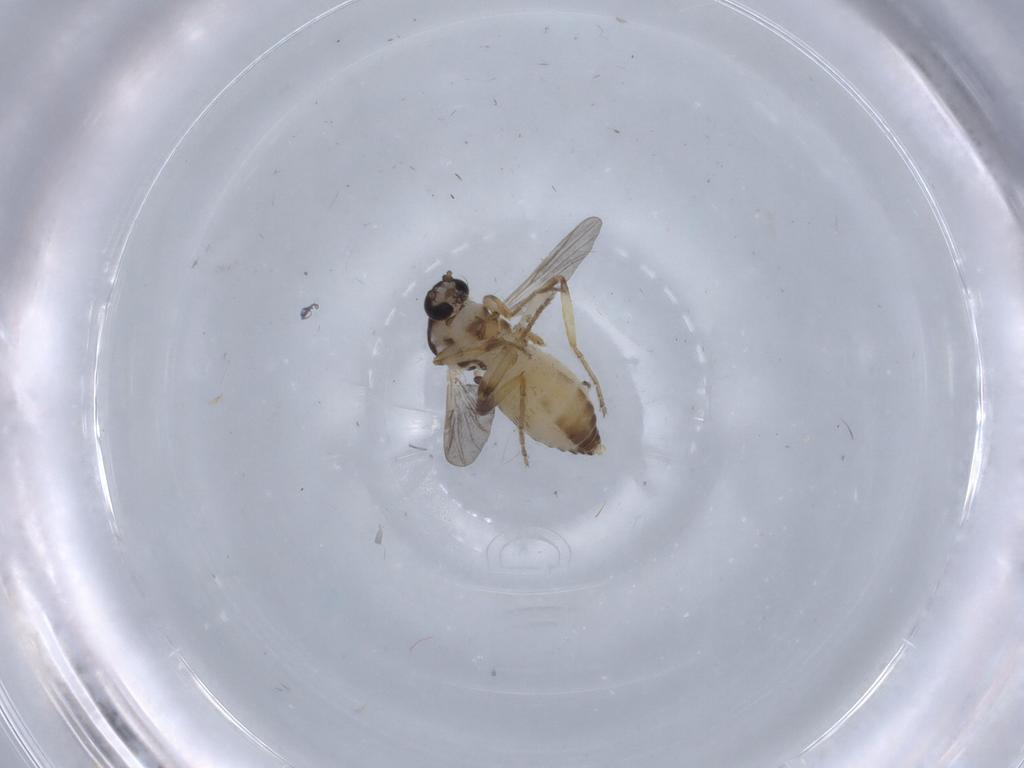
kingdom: Animalia
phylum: Arthropoda
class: Insecta
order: Diptera
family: Ceratopogonidae
